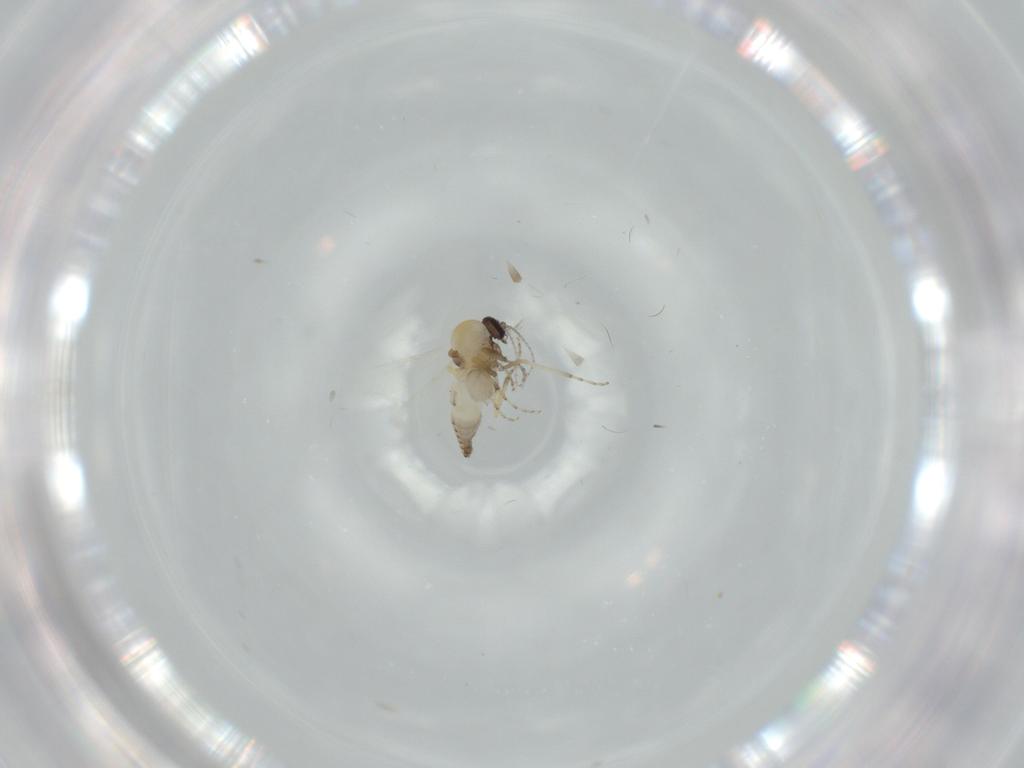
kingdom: Animalia
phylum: Arthropoda
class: Insecta
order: Diptera
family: Ceratopogonidae
